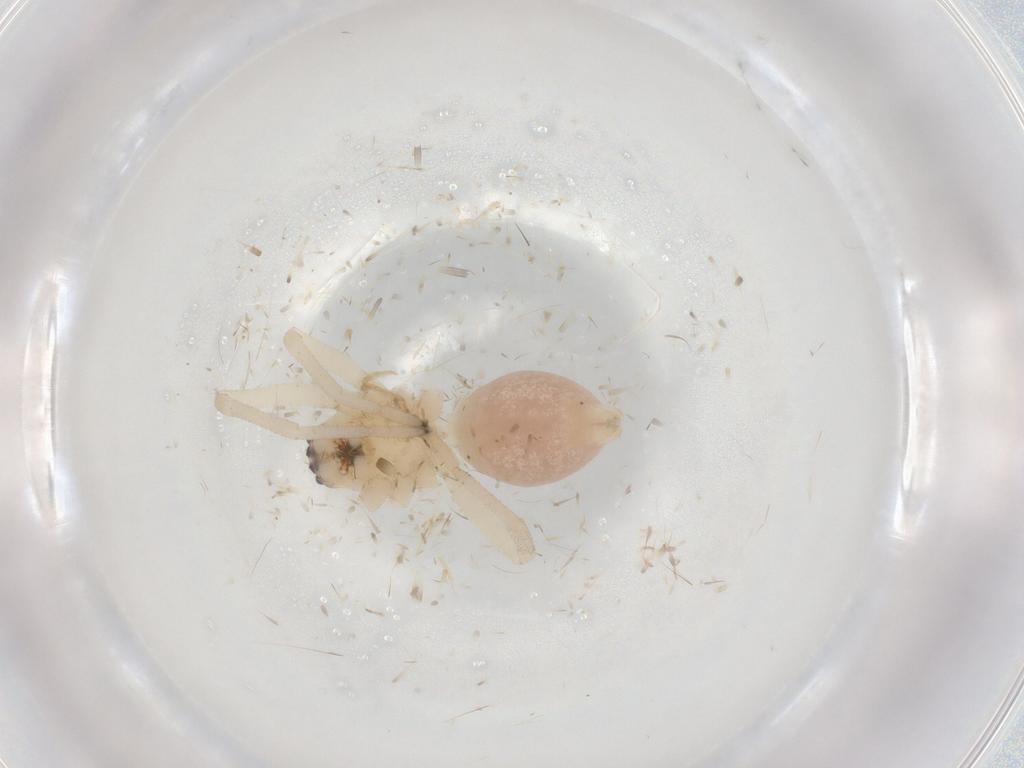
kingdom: Animalia
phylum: Arthropoda
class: Arachnida
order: Araneae
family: Cheiracanthiidae
